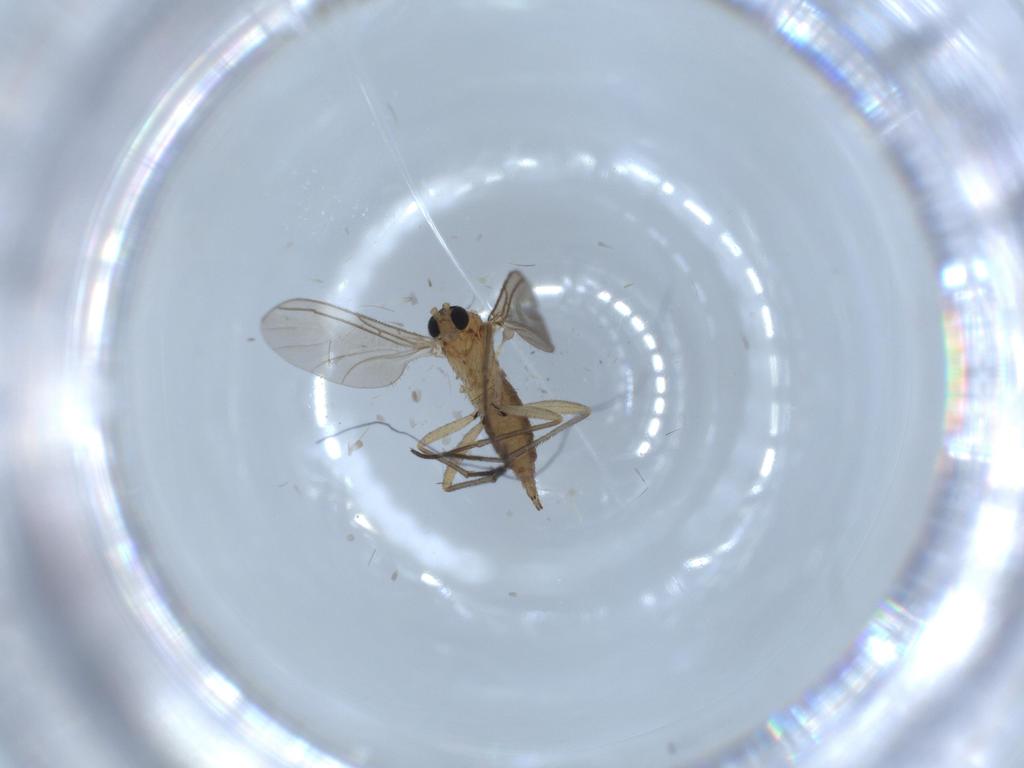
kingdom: Animalia
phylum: Arthropoda
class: Insecta
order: Diptera
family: Sciaridae
